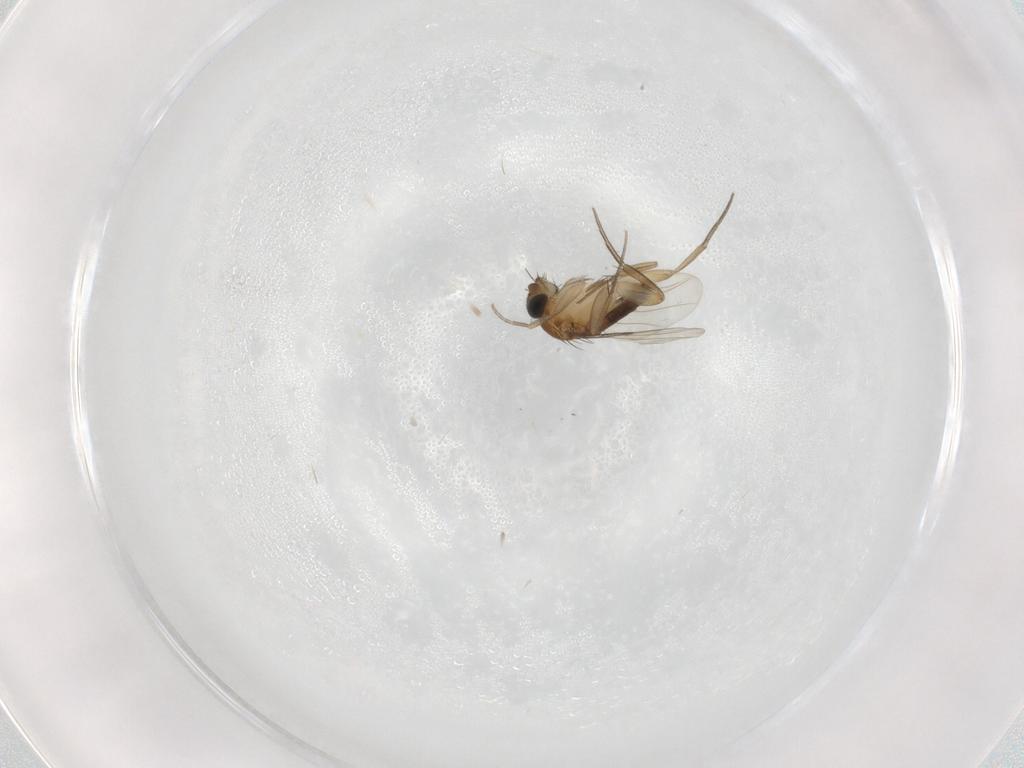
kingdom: Animalia
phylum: Arthropoda
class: Insecta
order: Diptera
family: Phoridae
